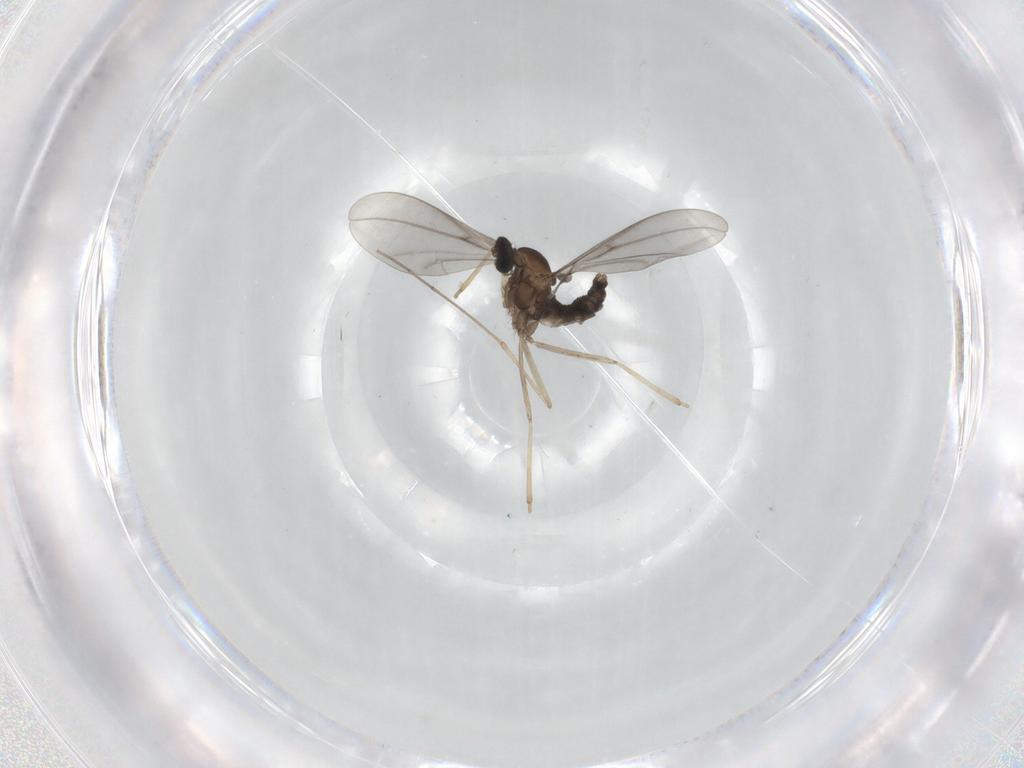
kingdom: Animalia
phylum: Arthropoda
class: Insecta
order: Diptera
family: Cecidomyiidae
